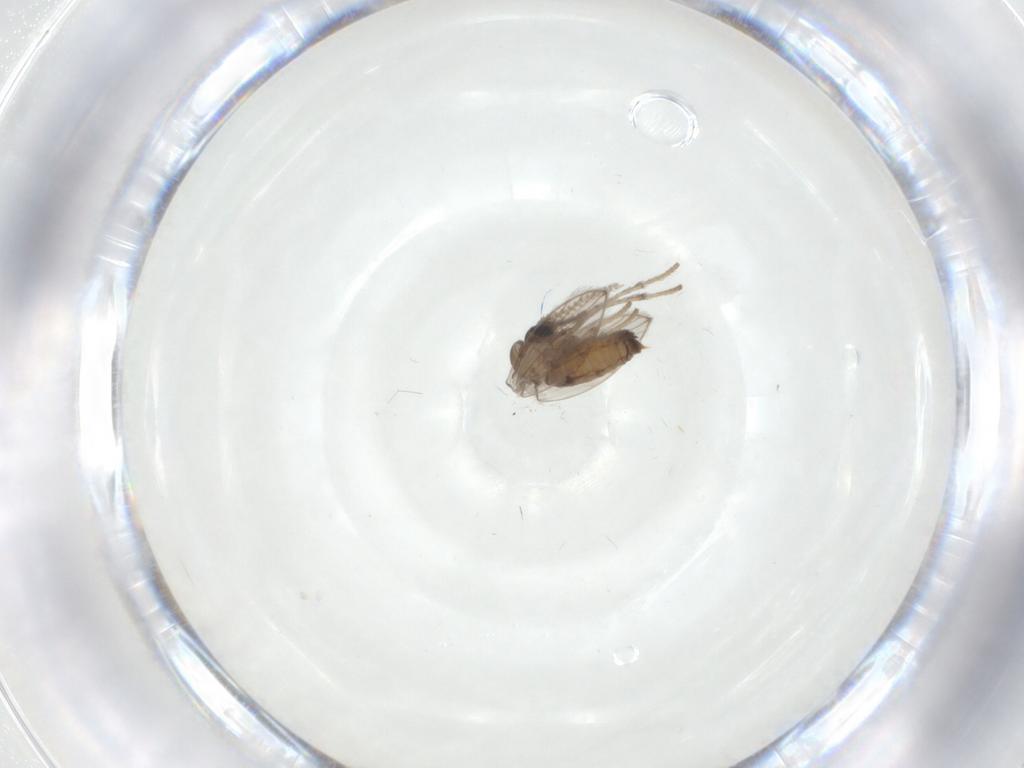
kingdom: Animalia
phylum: Arthropoda
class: Insecta
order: Diptera
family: Psychodidae
